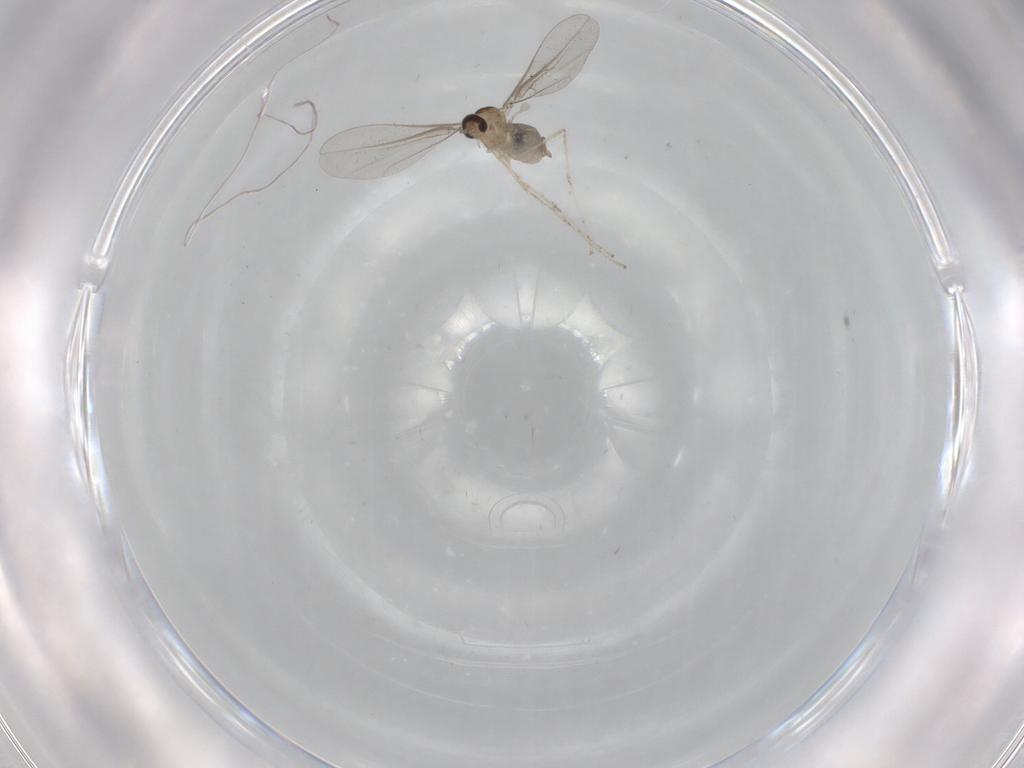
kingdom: Animalia
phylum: Arthropoda
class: Insecta
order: Diptera
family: Cecidomyiidae
